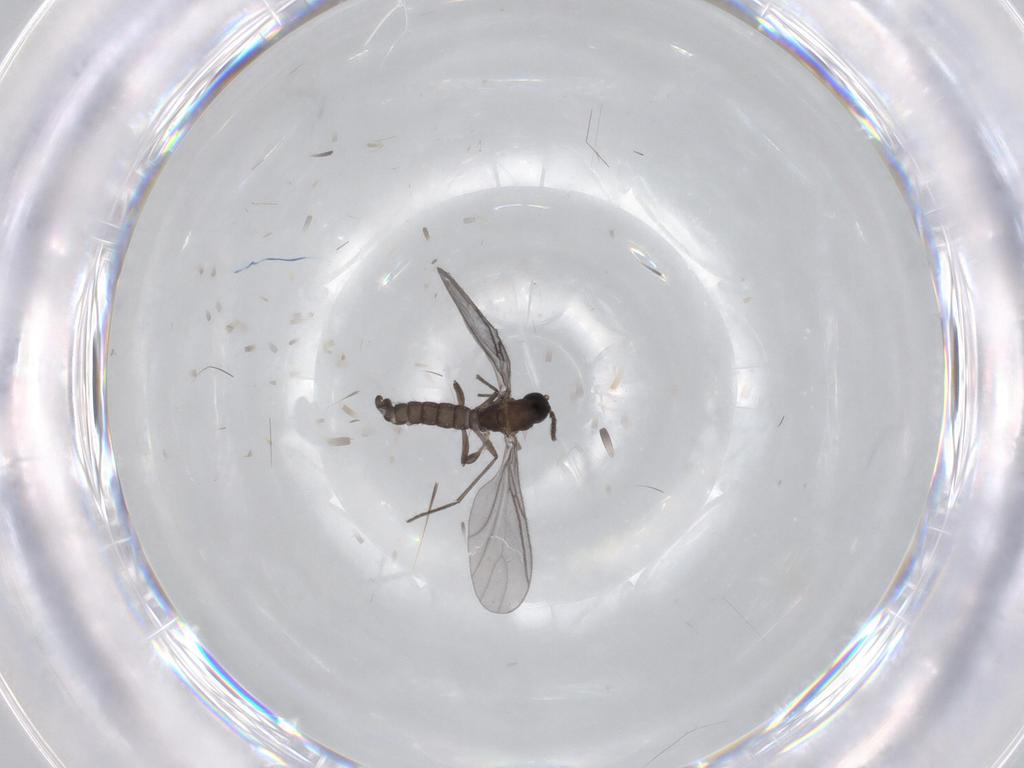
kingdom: Animalia
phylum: Arthropoda
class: Insecta
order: Diptera
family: Cecidomyiidae
